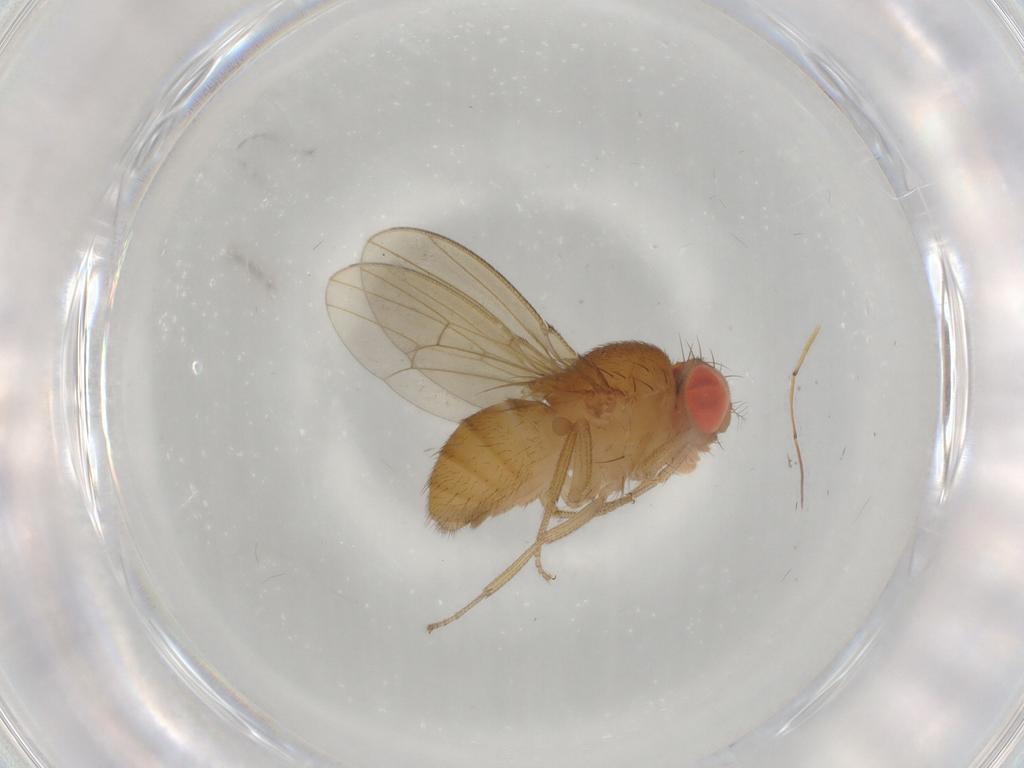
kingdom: Animalia
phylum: Arthropoda
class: Insecta
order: Diptera
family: Drosophilidae
